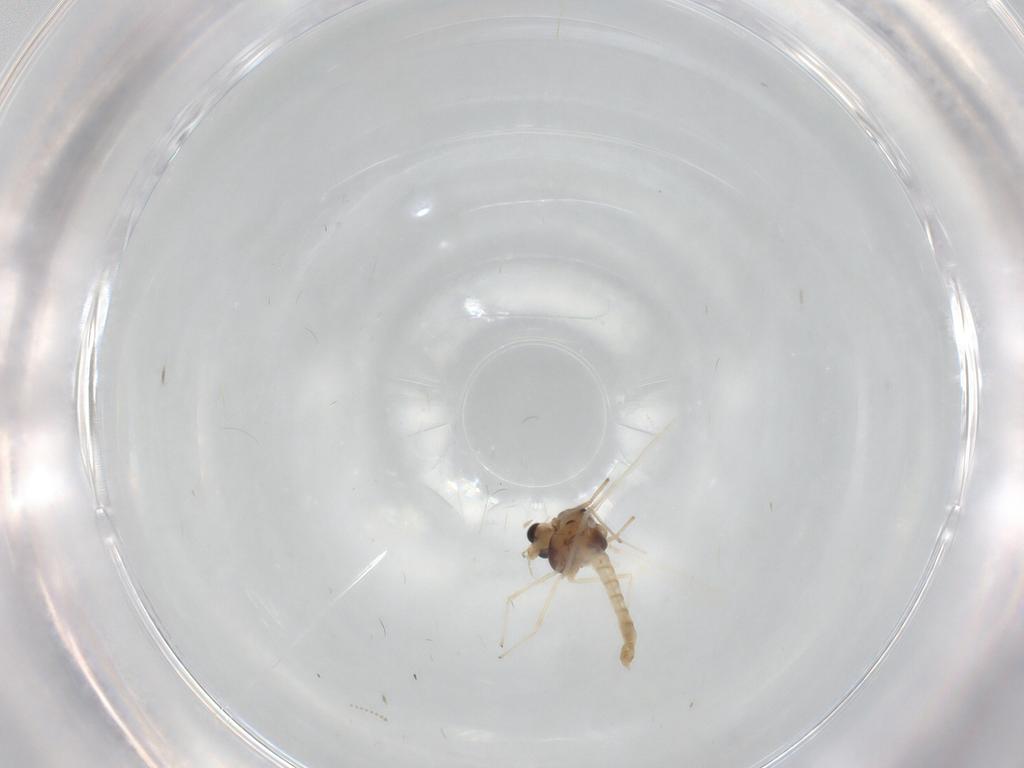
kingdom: Animalia
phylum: Arthropoda
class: Insecta
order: Diptera
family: Chironomidae
